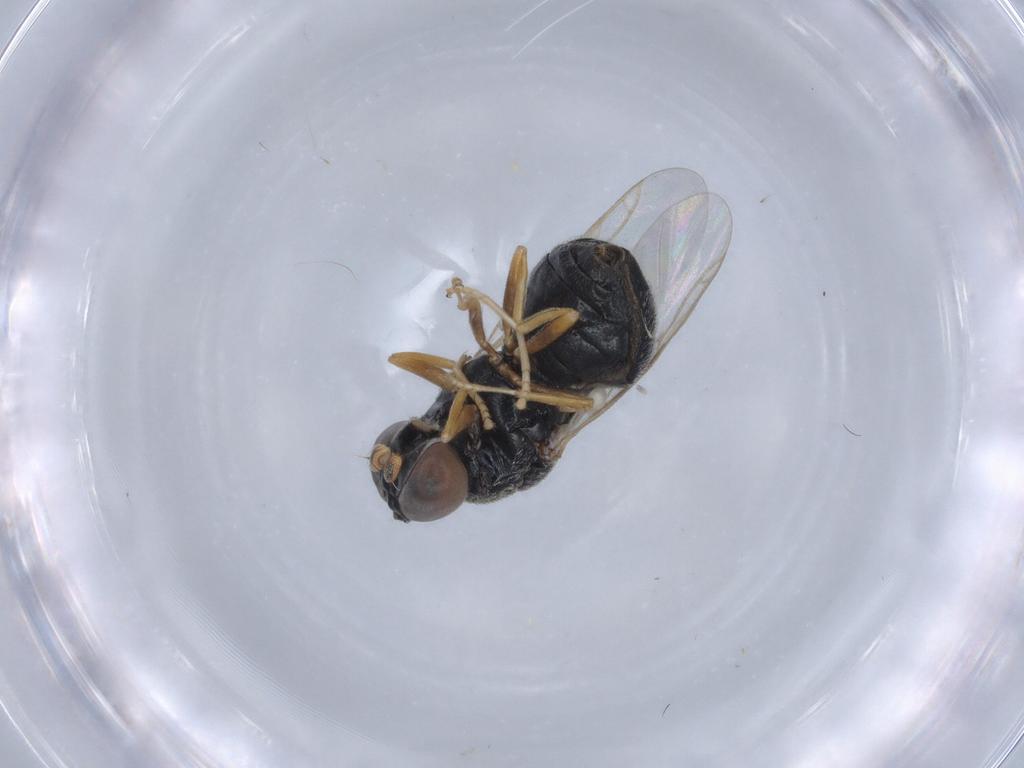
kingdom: Animalia
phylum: Arthropoda
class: Insecta
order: Diptera
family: Stratiomyidae
